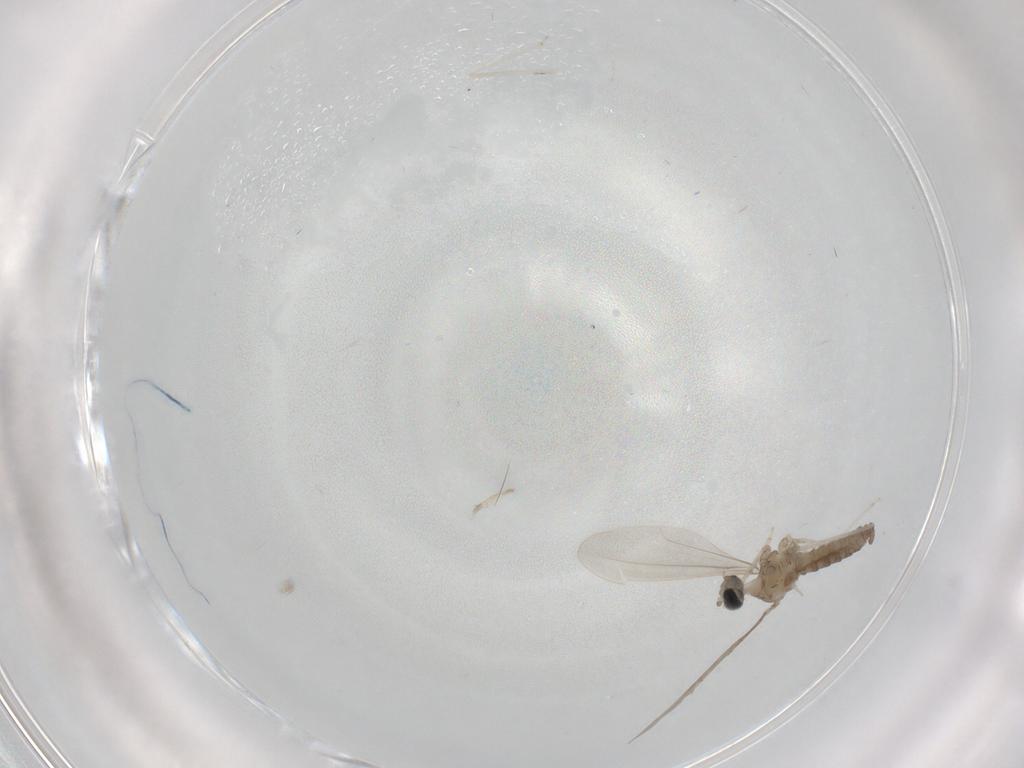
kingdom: Animalia
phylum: Arthropoda
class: Insecta
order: Diptera
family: Cecidomyiidae
